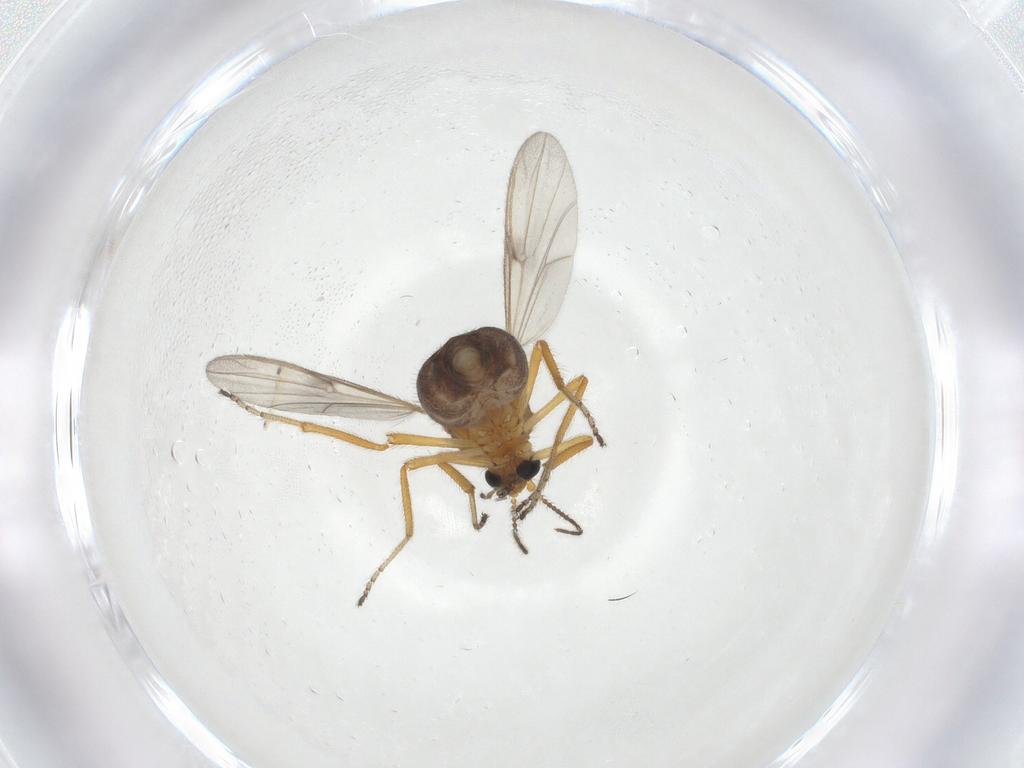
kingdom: Animalia
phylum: Arthropoda
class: Insecta
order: Diptera
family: Ceratopogonidae
